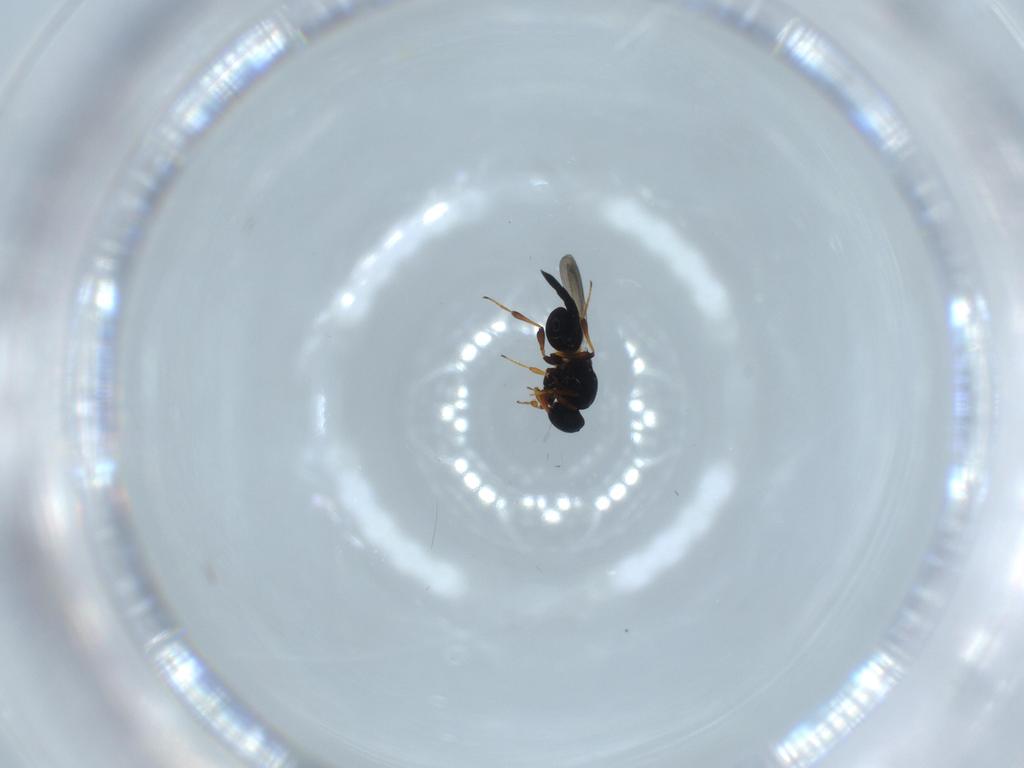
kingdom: Animalia
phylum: Arthropoda
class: Insecta
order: Hymenoptera
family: Platygastridae
